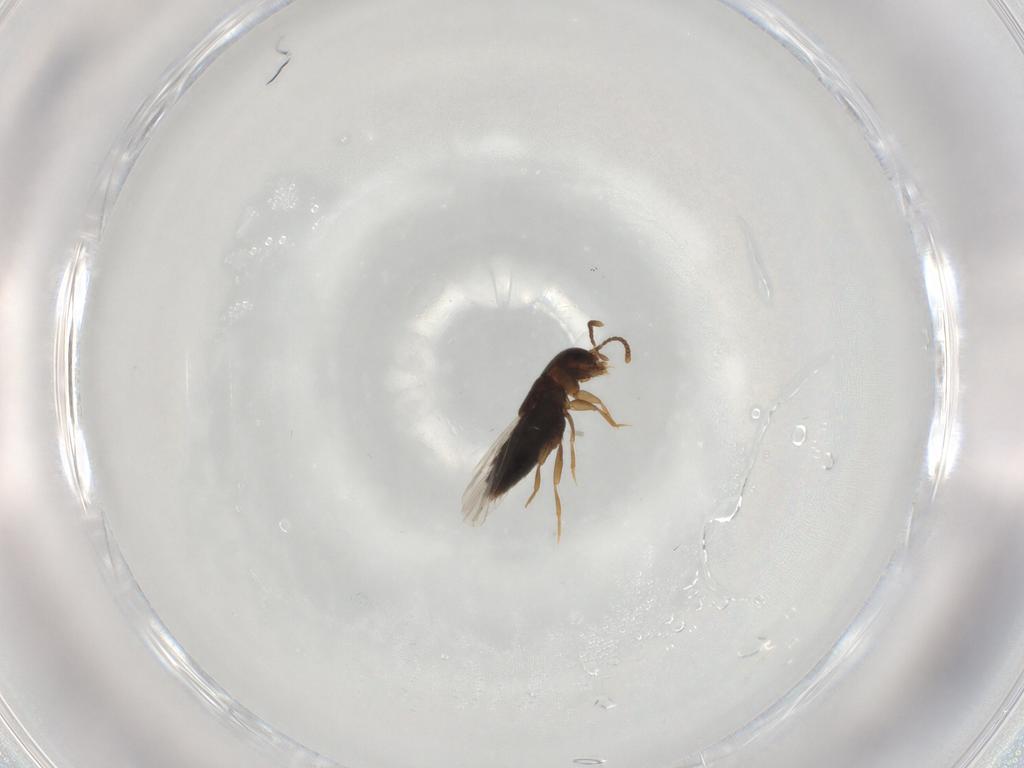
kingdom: Animalia
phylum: Arthropoda
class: Insecta
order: Coleoptera
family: Staphylinidae
